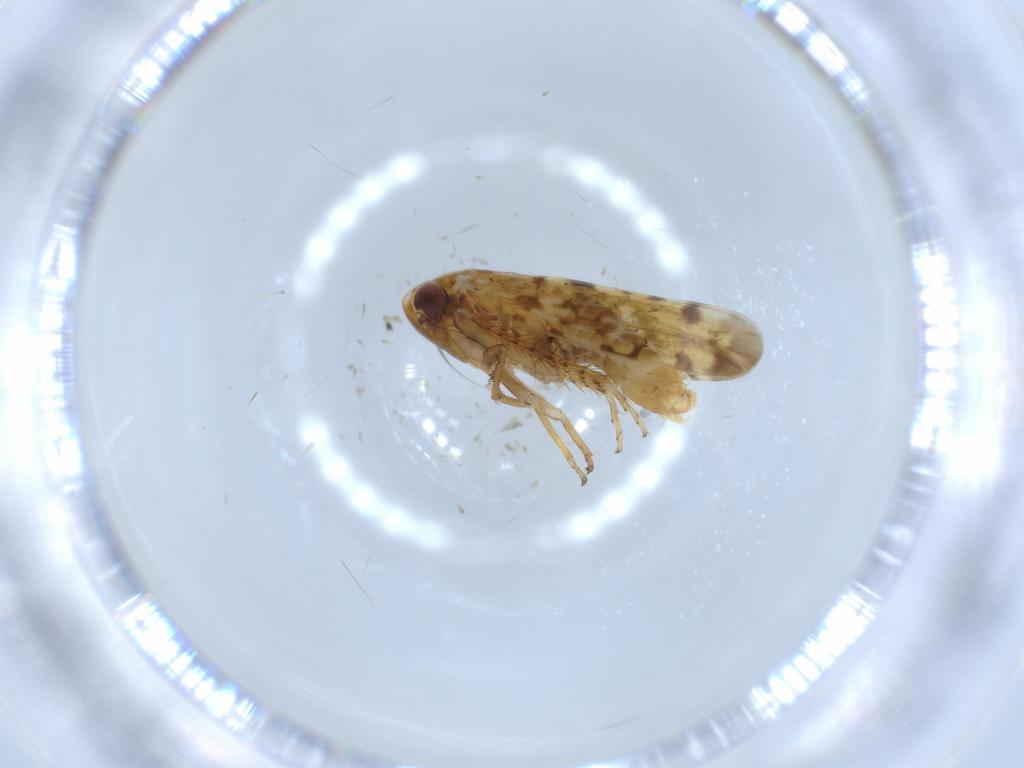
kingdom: Animalia
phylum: Arthropoda
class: Insecta
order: Hemiptera
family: Cicadellidae
